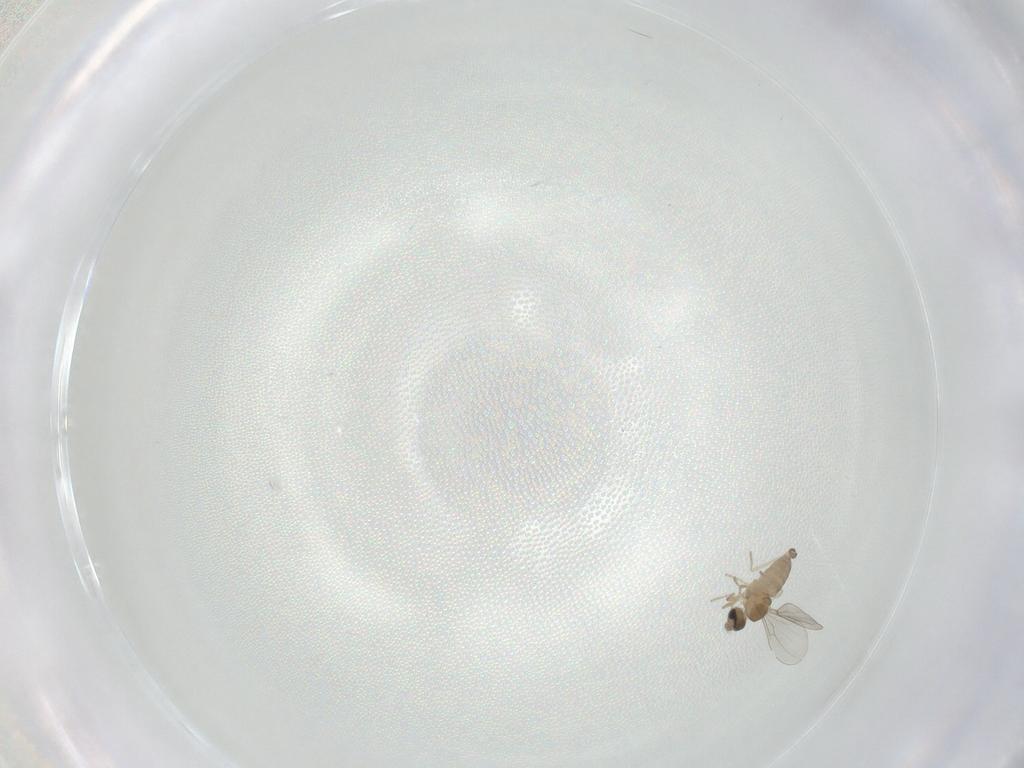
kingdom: Animalia
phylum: Arthropoda
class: Insecta
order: Diptera
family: Cecidomyiidae
